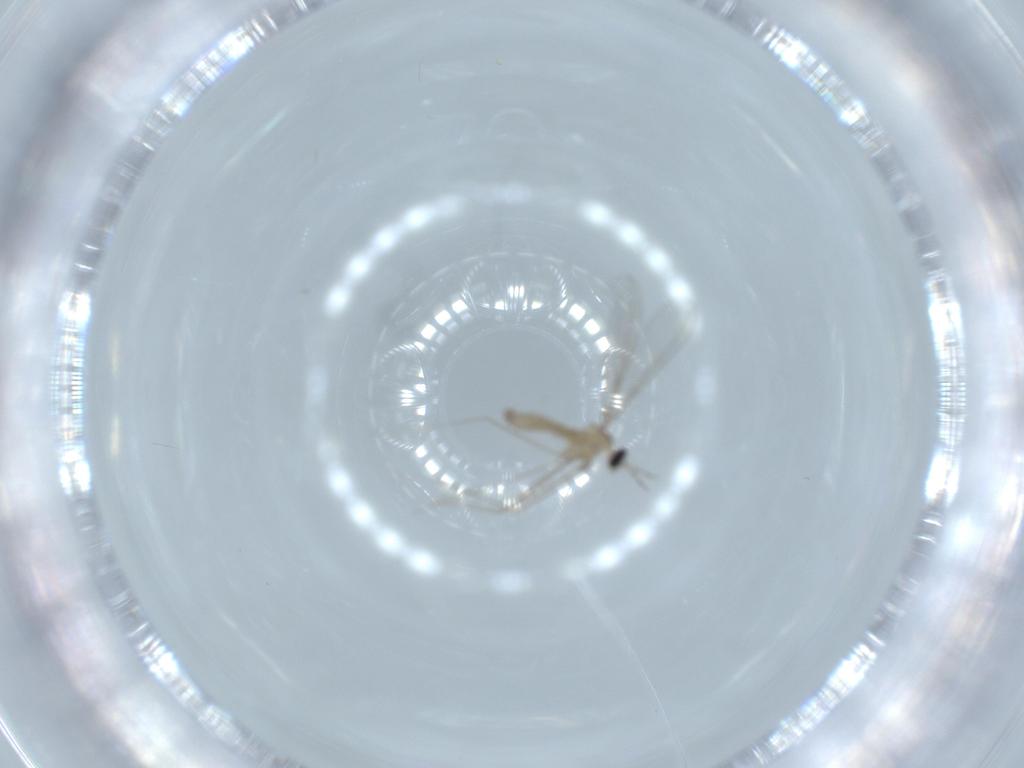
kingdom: Animalia
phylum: Arthropoda
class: Insecta
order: Diptera
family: Cecidomyiidae
